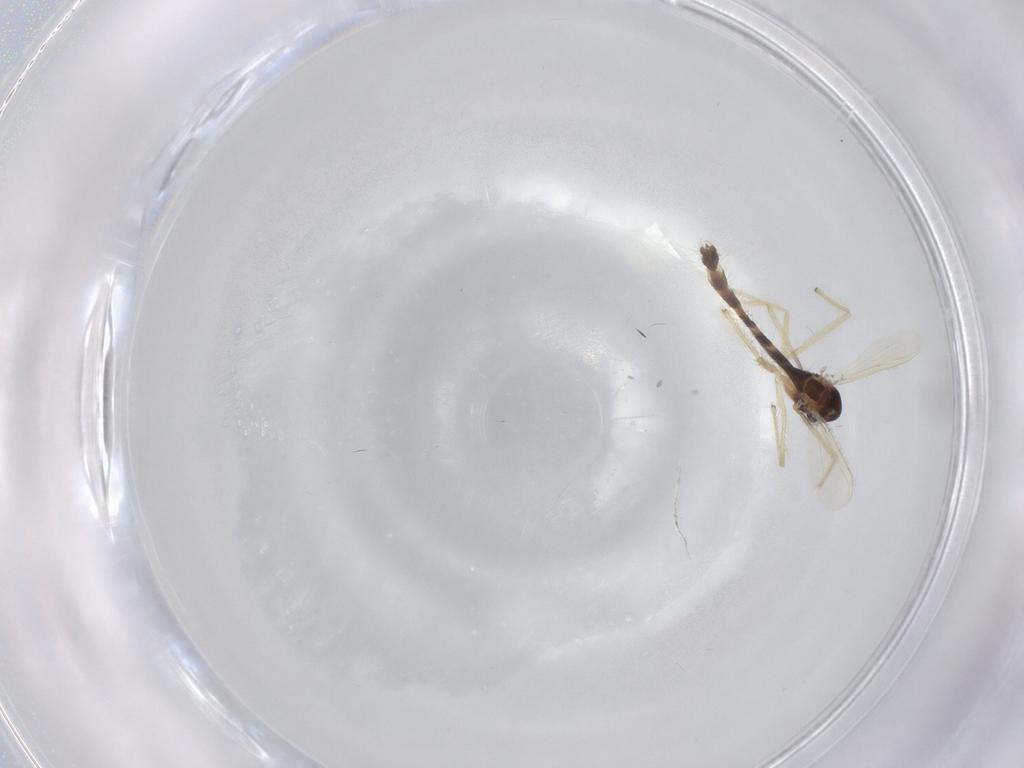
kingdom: Animalia
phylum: Arthropoda
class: Insecta
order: Diptera
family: Chironomidae
